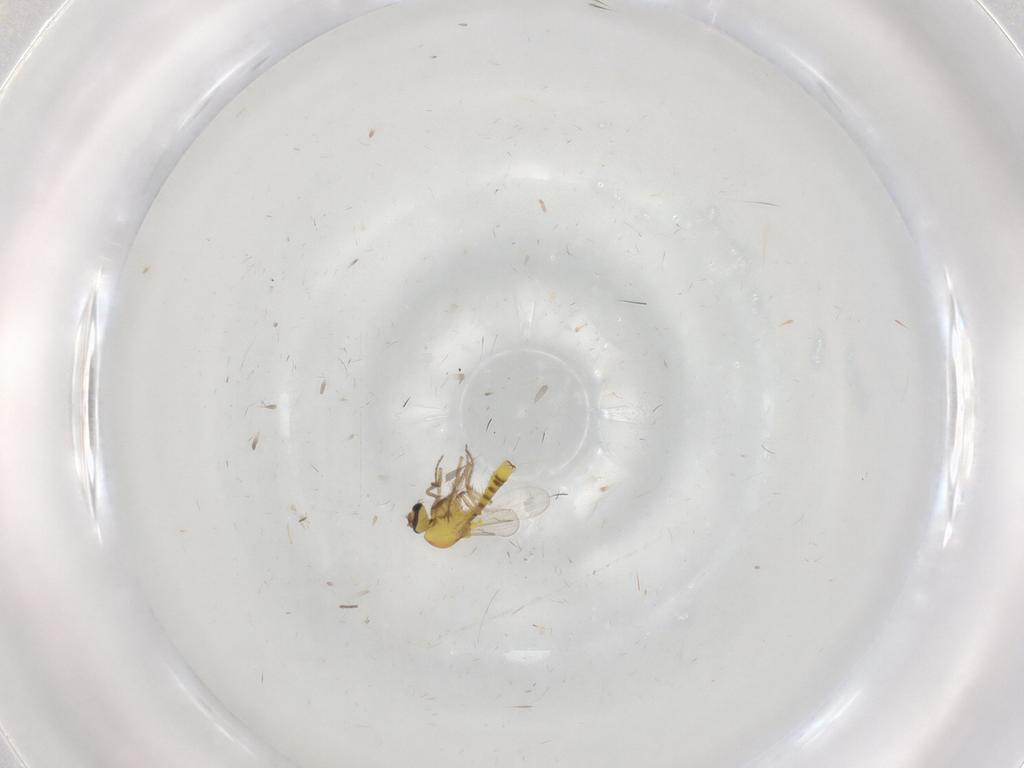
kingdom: Animalia
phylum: Arthropoda
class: Insecta
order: Diptera
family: Ceratopogonidae
